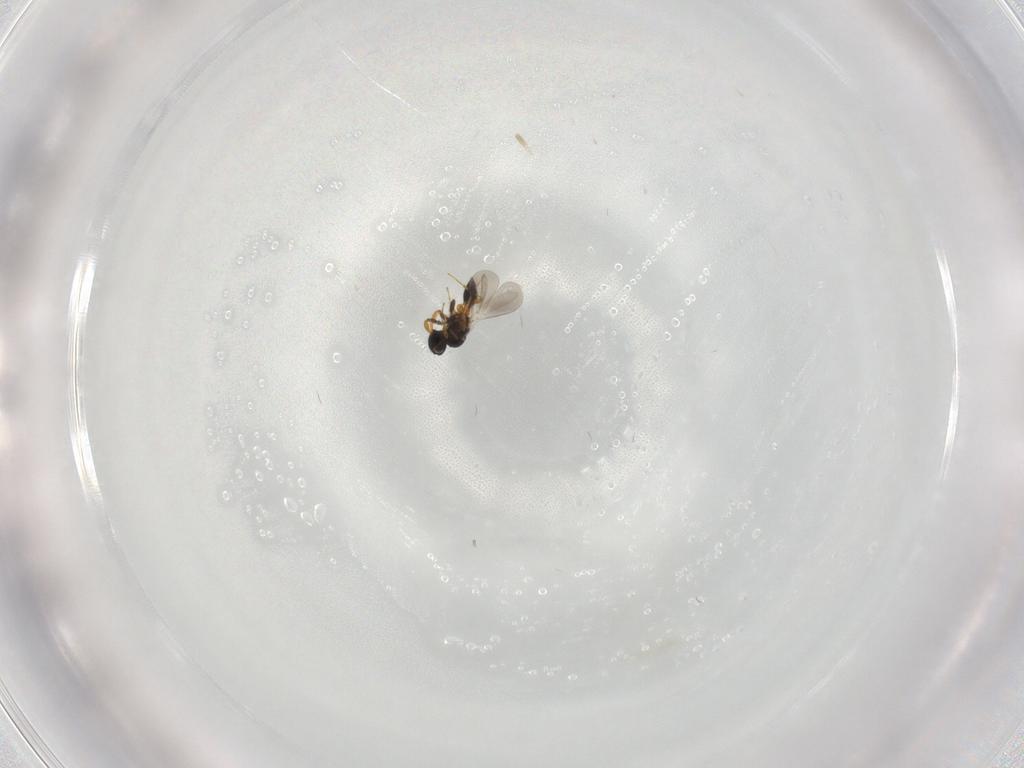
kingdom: Animalia
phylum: Arthropoda
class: Insecta
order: Hymenoptera
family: Platygastridae
